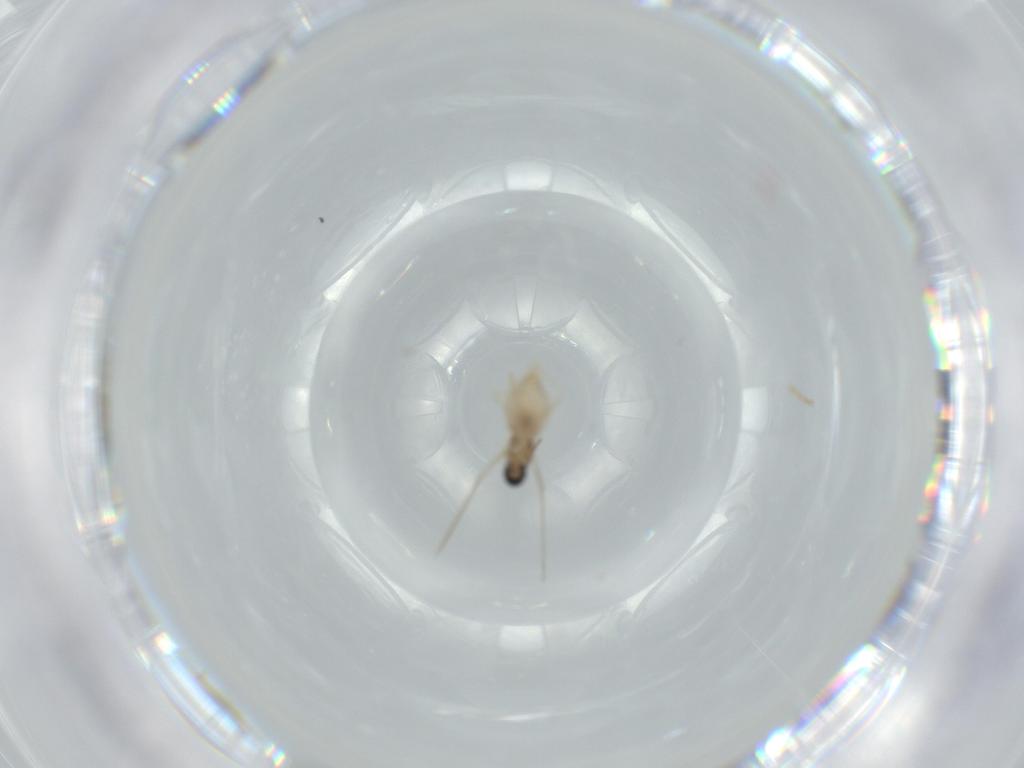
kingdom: Animalia
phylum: Arthropoda
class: Insecta
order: Diptera
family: Cecidomyiidae
